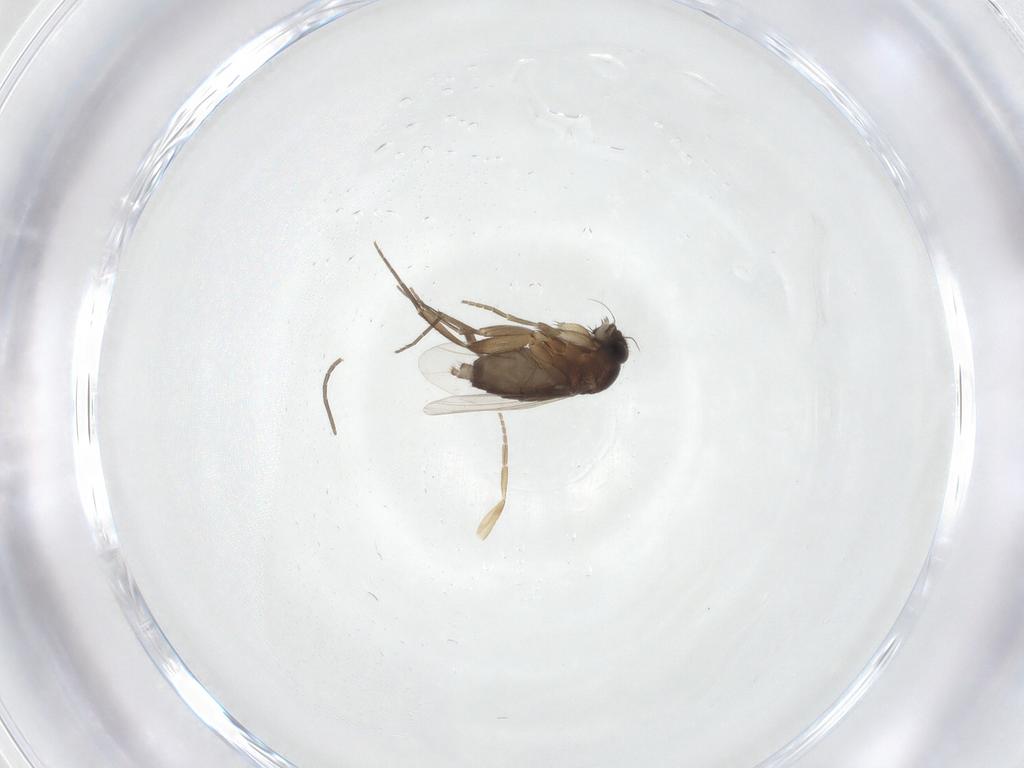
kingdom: Animalia
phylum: Arthropoda
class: Insecta
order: Diptera
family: Phoridae
